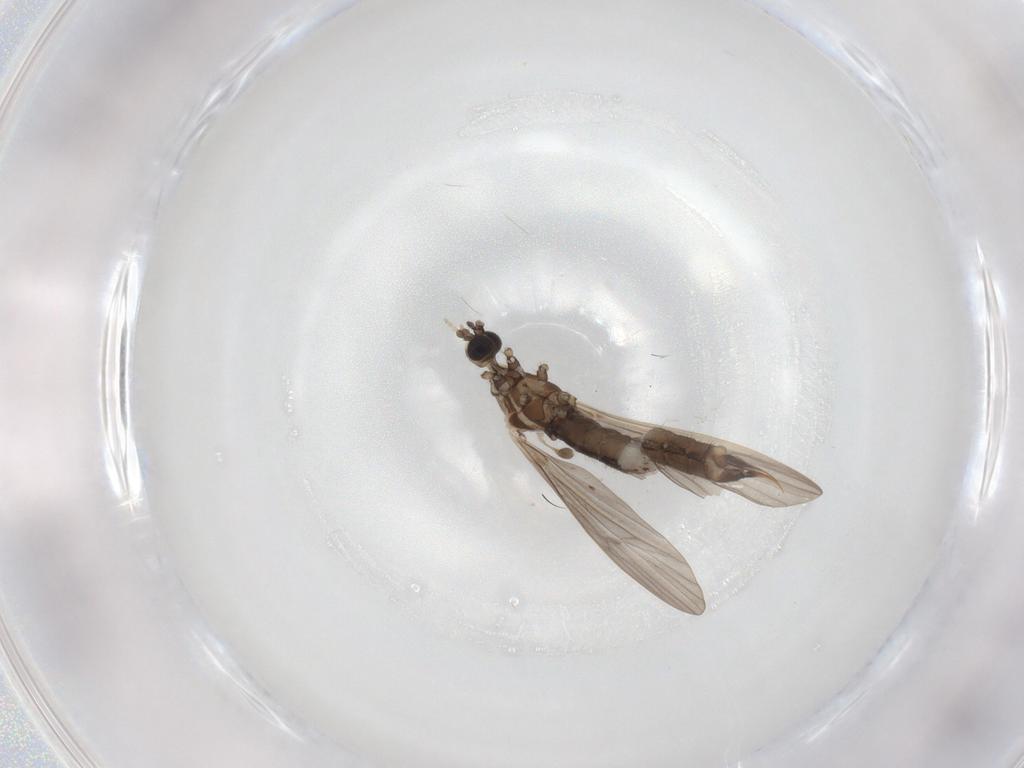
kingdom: Animalia
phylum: Arthropoda
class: Insecta
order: Diptera
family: Limoniidae
